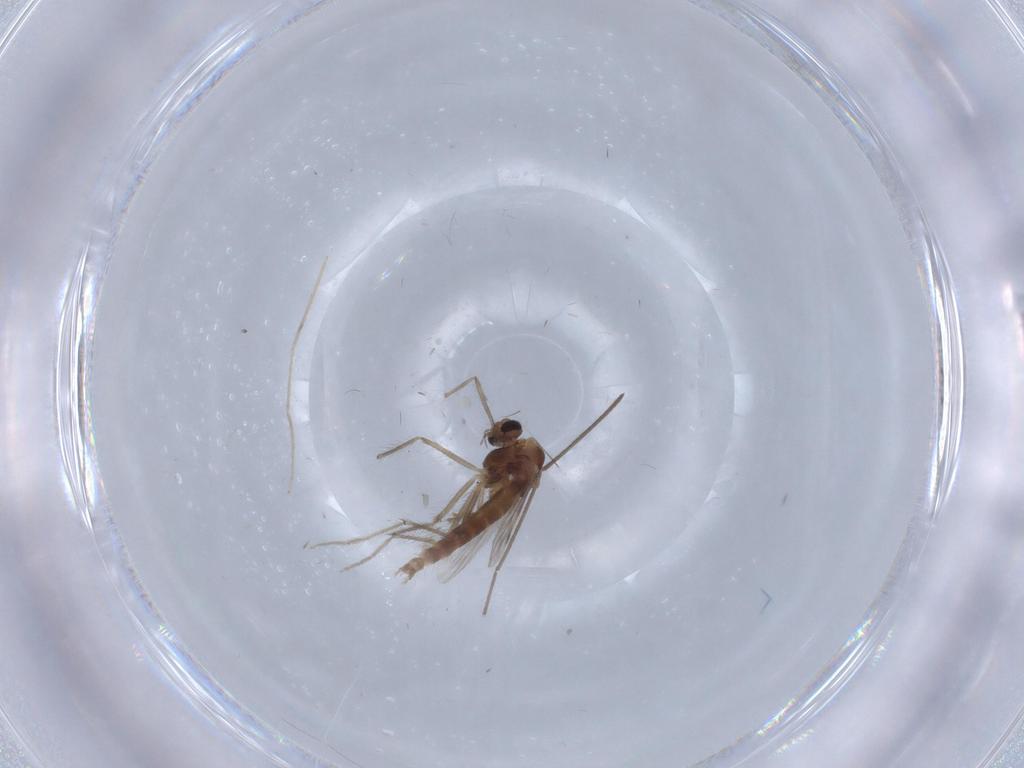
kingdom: Animalia
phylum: Arthropoda
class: Insecta
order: Diptera
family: Chironomidae
